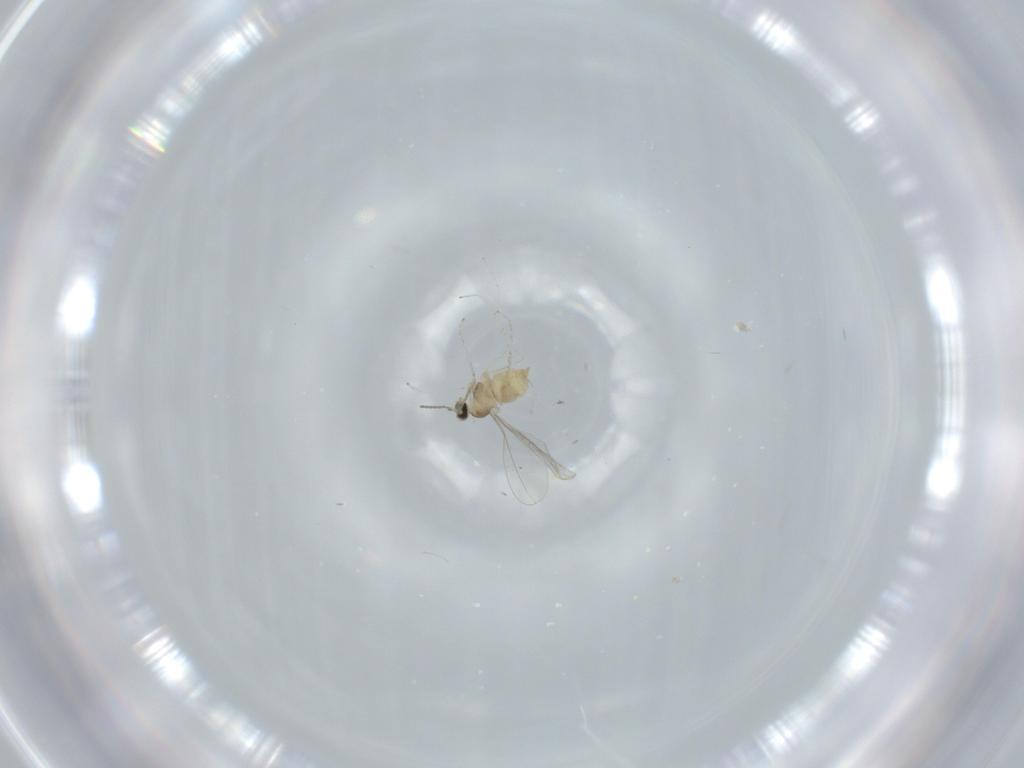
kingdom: Animalia
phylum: Arthropoda
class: Insecta
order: Diptera
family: Cecidomyiidae
